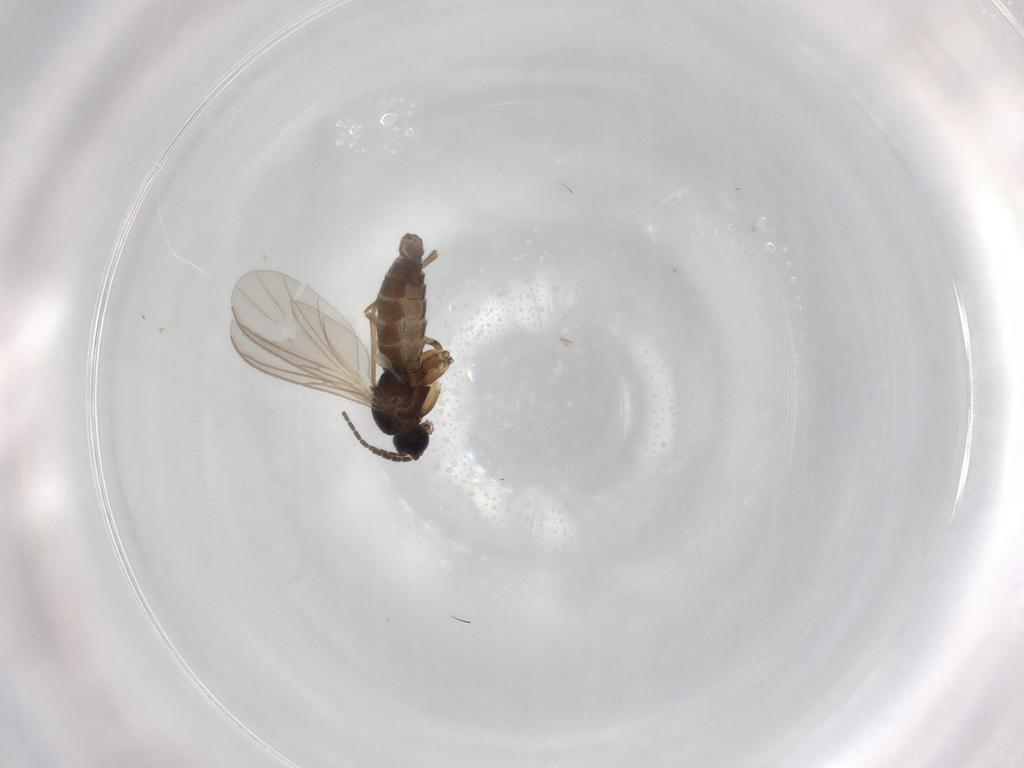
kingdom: Animalia
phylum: Arthropoda
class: Insecta
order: Diptera
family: Sciaridae
